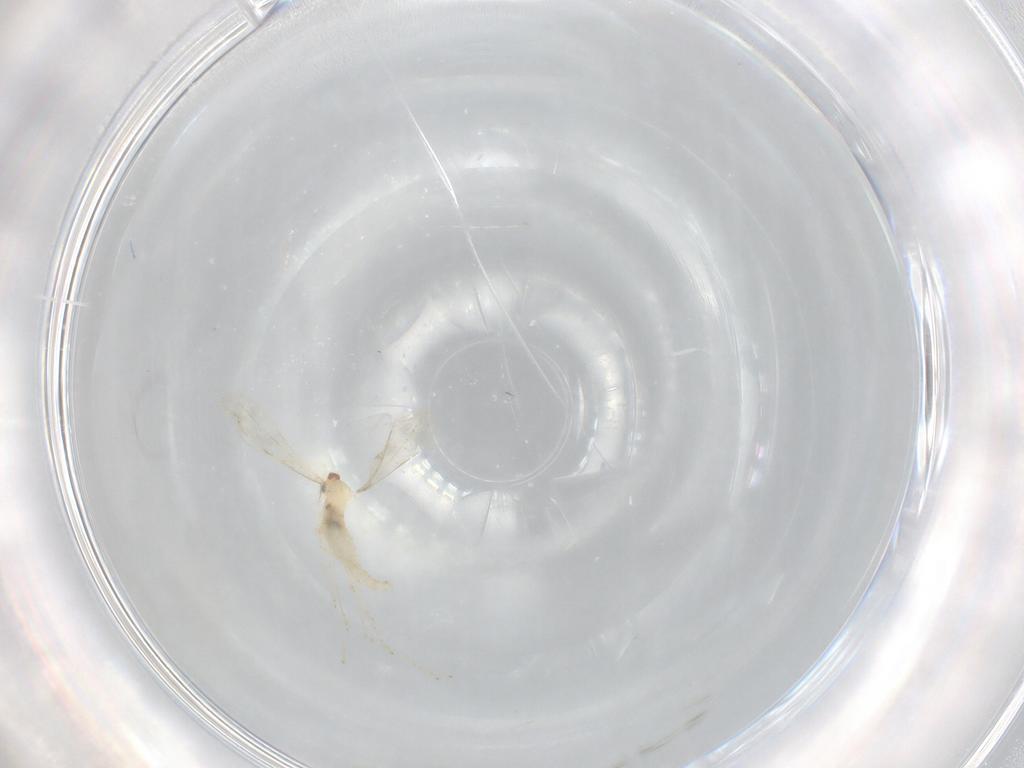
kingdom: Animalia
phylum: Arthropoda
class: Insecta
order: Diptera
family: Cecidomyiidae
